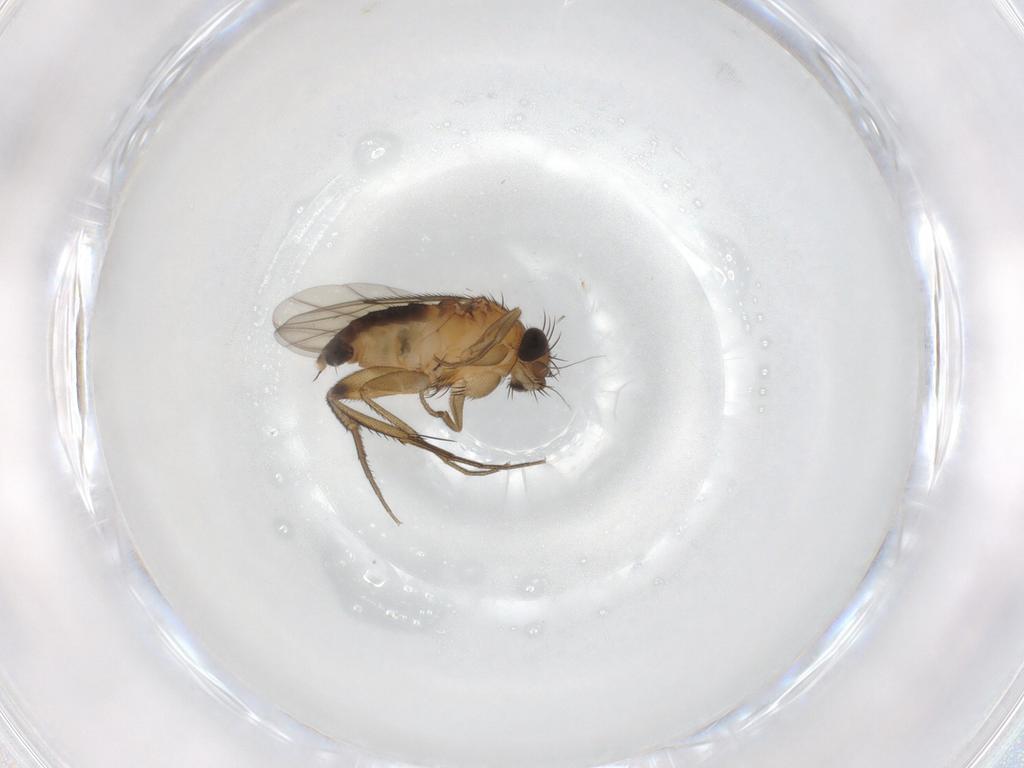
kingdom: Animalia
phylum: Arthropoda
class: Insecta
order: Diptera
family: Phoridae
